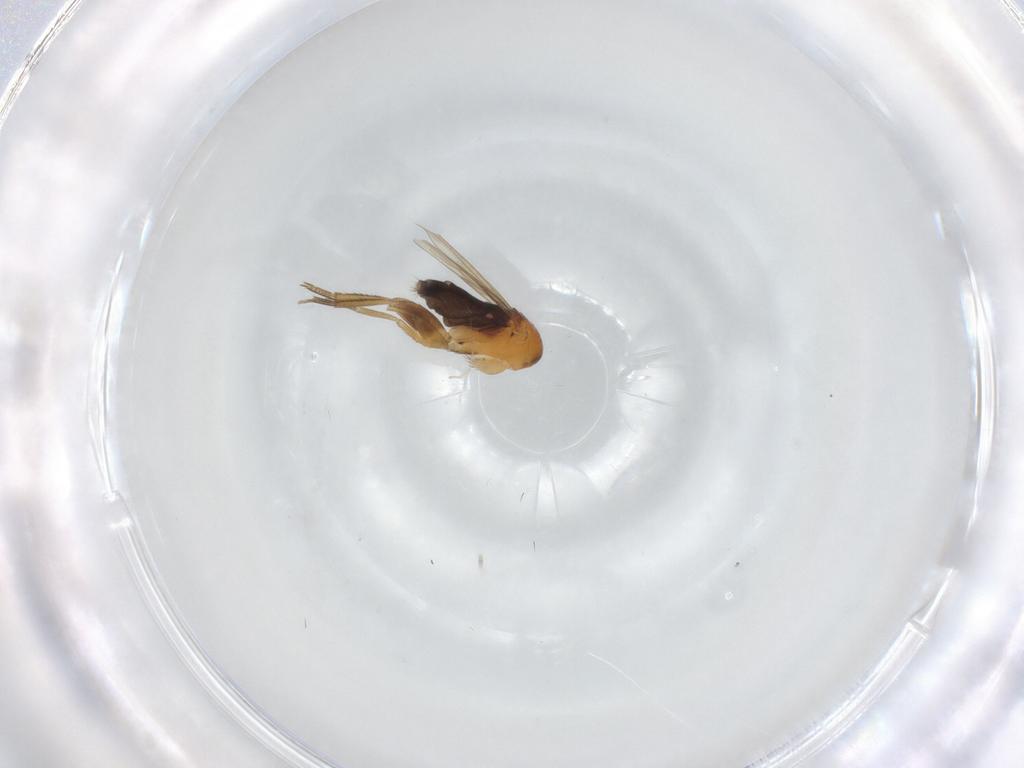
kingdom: Animalia
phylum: Arthropoda
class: Insecta
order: Diptera
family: Phoridae
